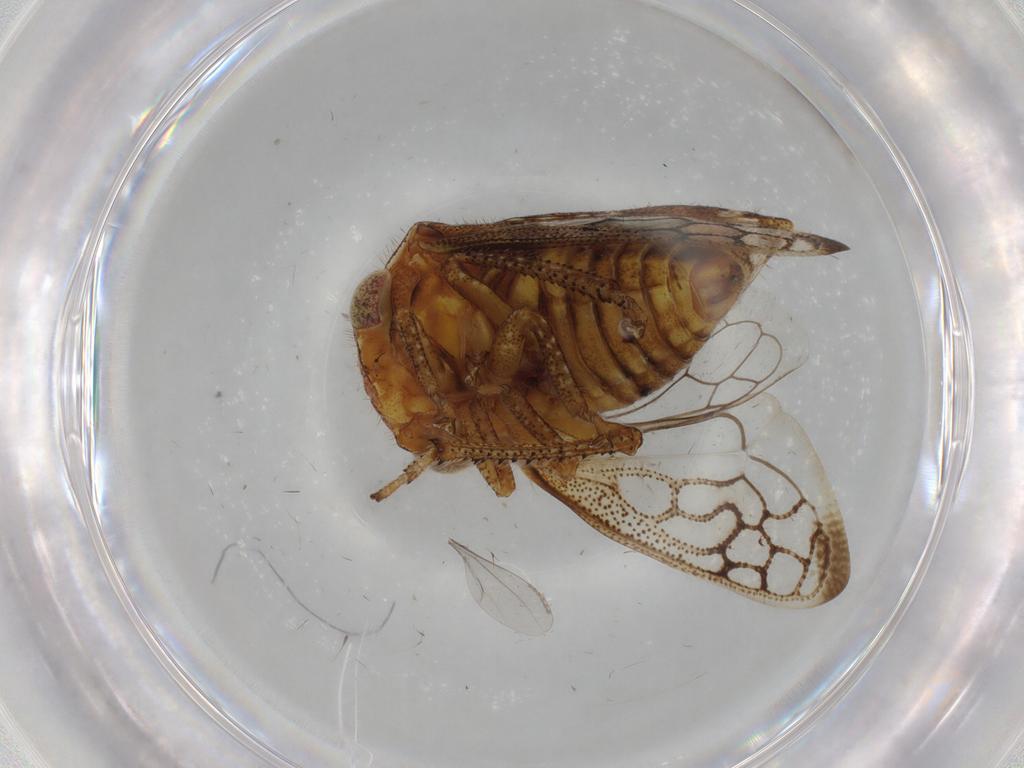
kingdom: Animalia
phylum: Arthropoda
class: Insecta
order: Hemiptera
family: Membracidae
